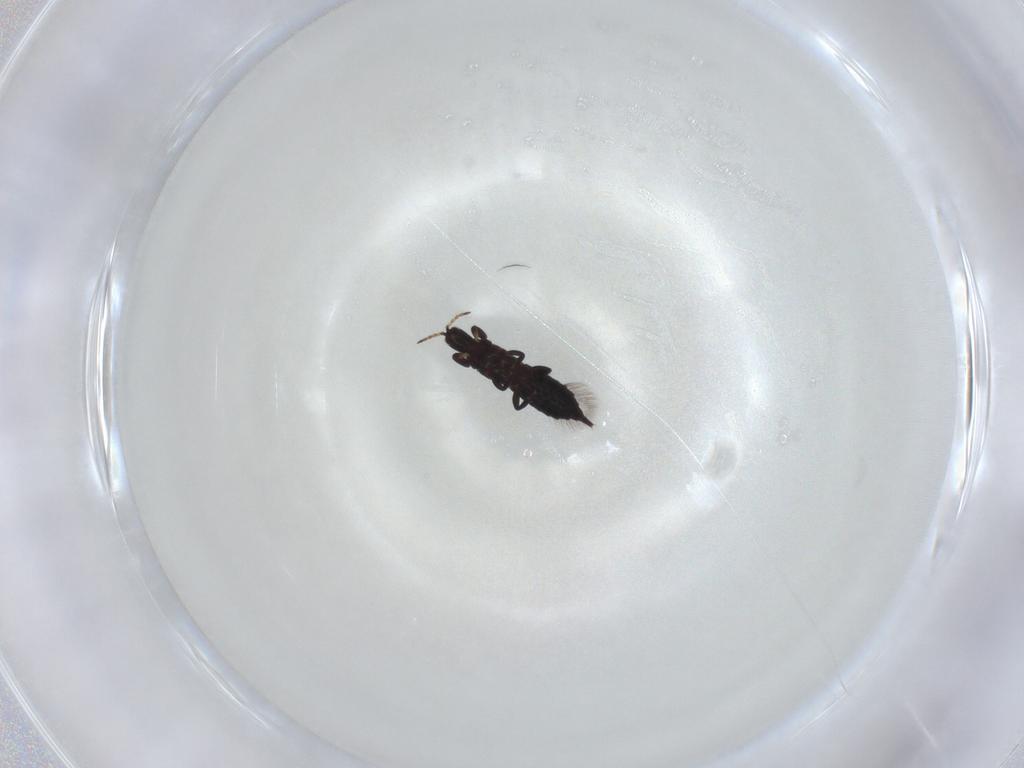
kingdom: Animalia
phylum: Arthropoda
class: Insecta
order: Thysanoptera
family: Phlaeothripidae
